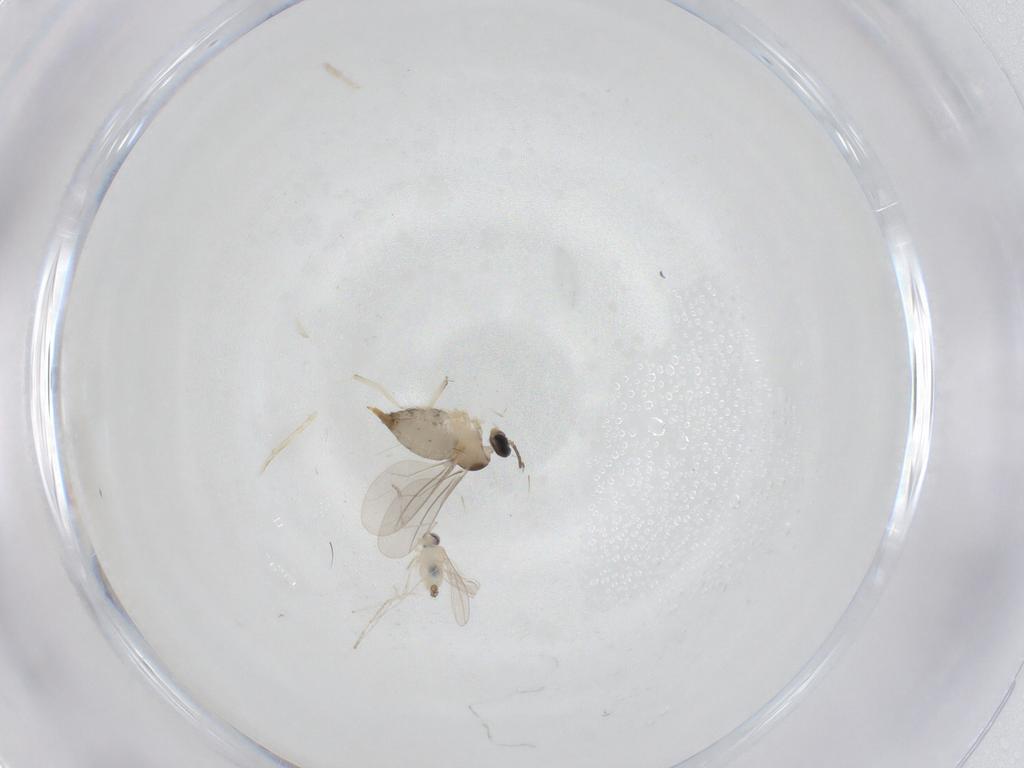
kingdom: Animalia
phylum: Arthropoda
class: Insecta
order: Diptera
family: Cecidomyiidae
